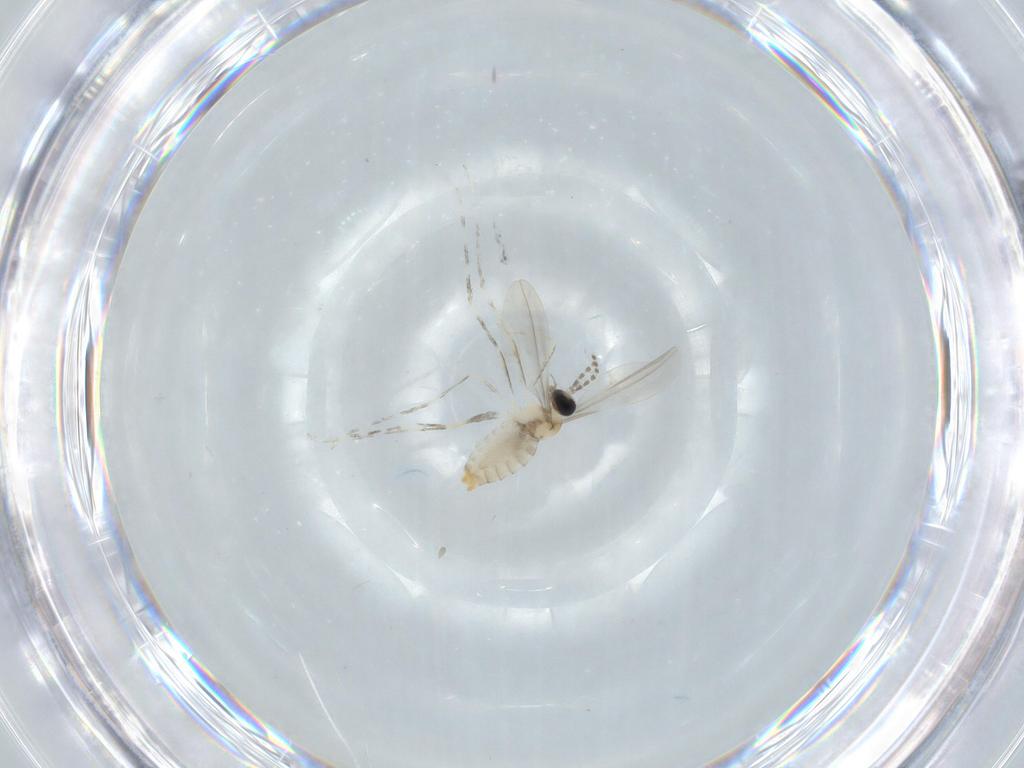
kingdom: Animalia
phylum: Arthropoda
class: Insecta
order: Diptera
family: Cecidomyiidae
